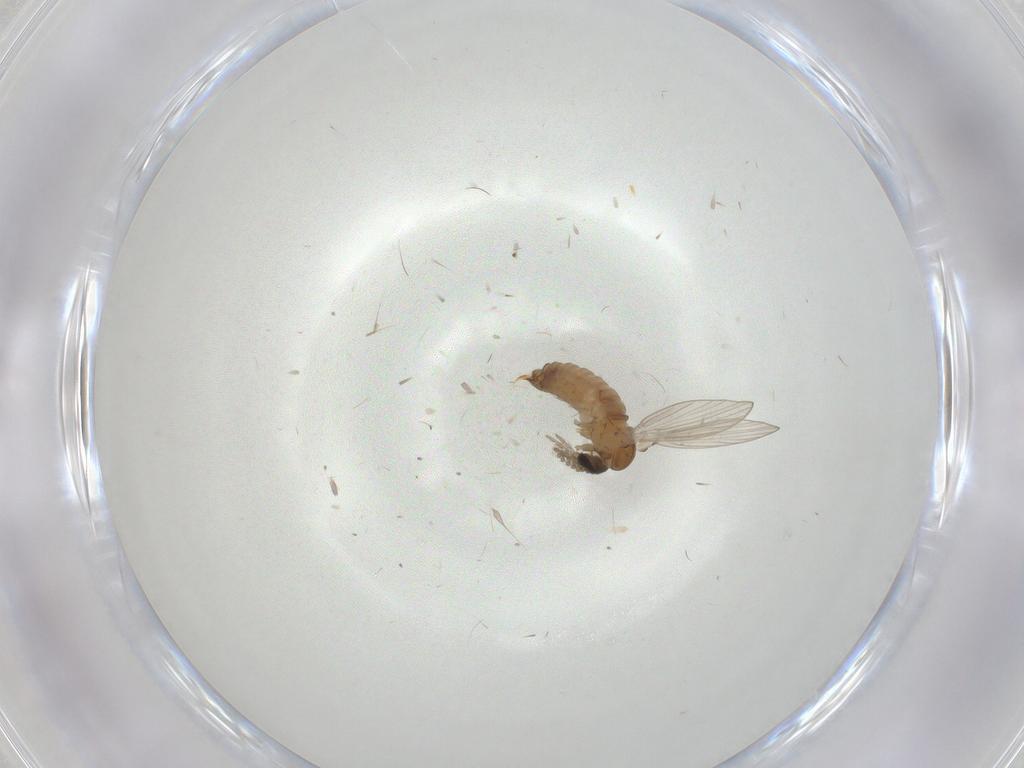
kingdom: Animalia
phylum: Arthropoda
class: Insecta
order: Diptera
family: Psychodidae
